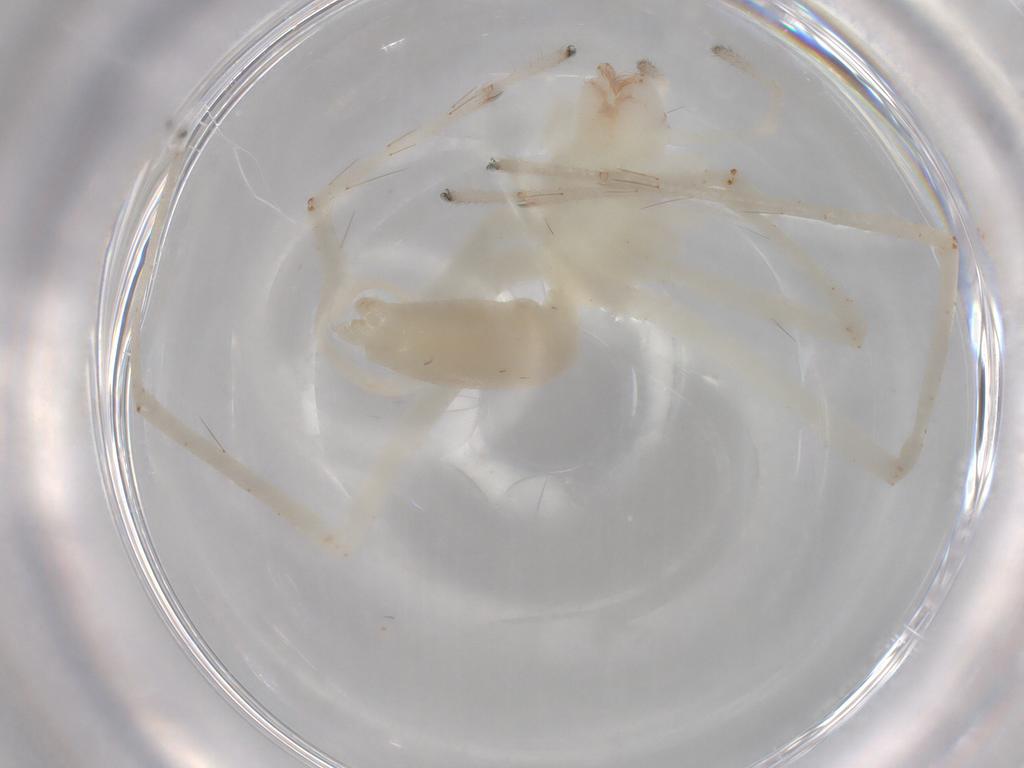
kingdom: Animalia
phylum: Arthropoda
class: Arachnida
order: Araneae
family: Anyphaenidae
